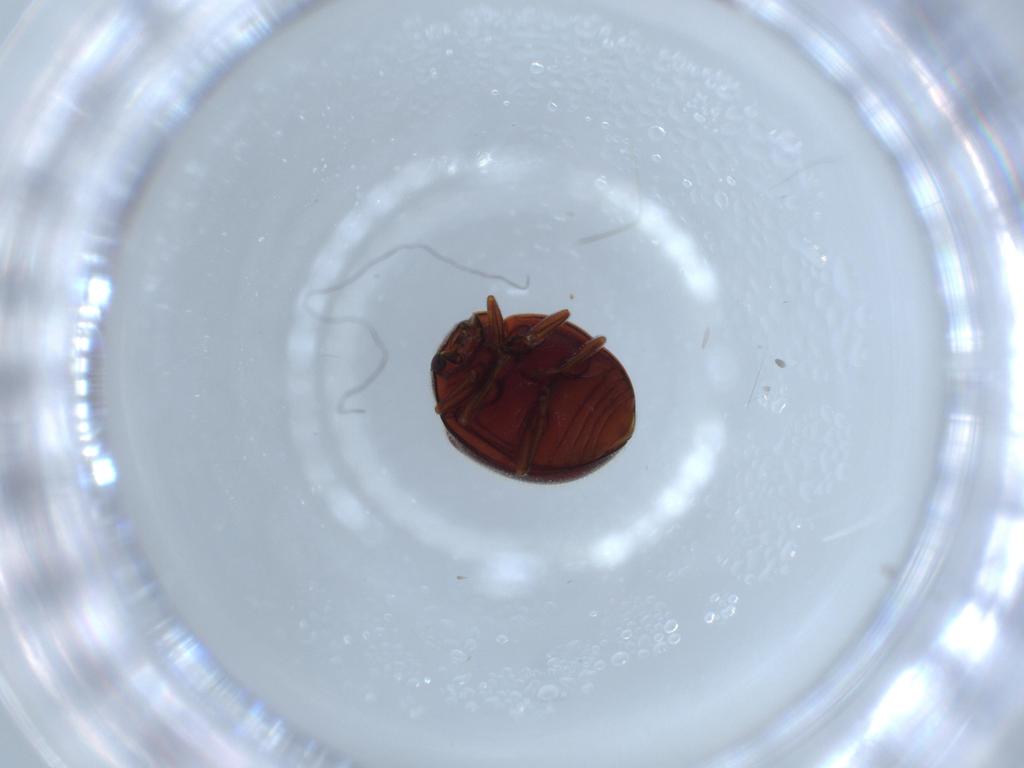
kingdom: Animalia
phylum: Arthropoda
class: Insecta
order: Coleoptera
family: Coccinellidae
